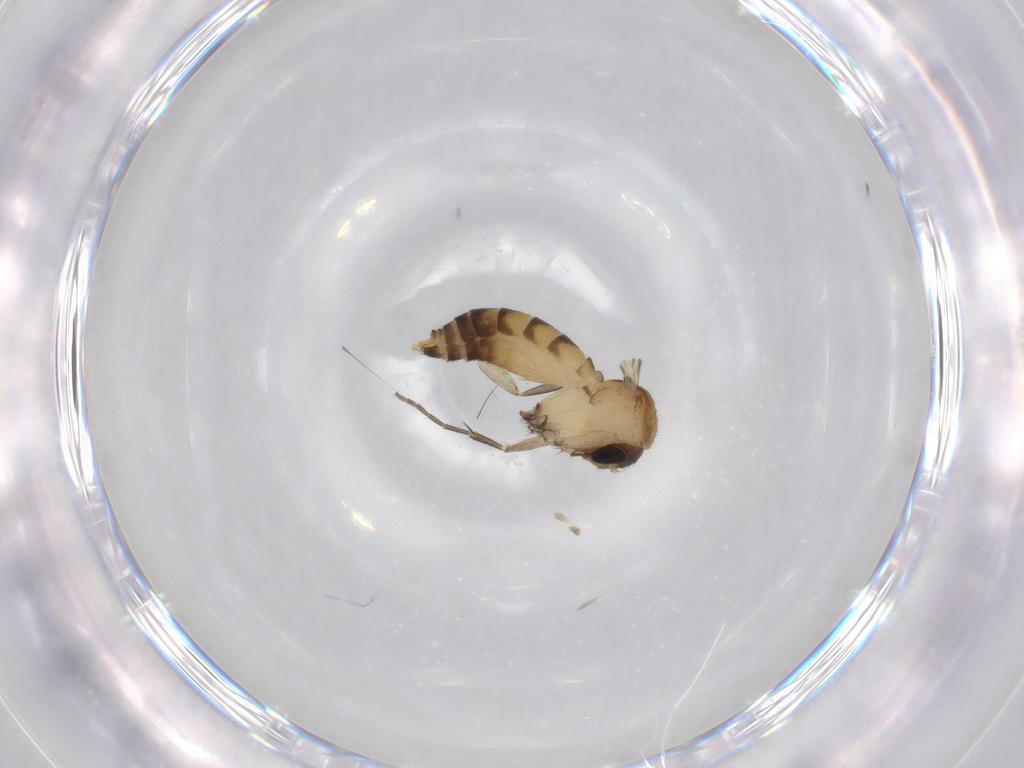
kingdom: Animalia
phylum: Arthropoda
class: Insecta
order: Diptera
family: Mycetophilidae
